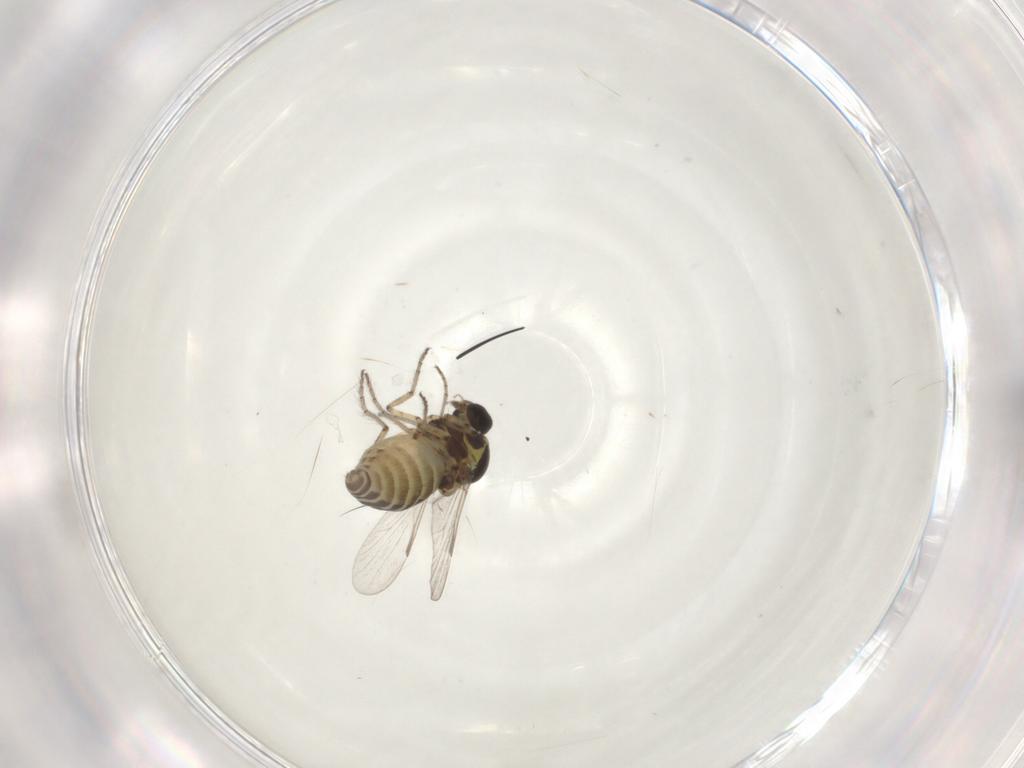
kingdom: Animalia
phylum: Arthropoda
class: Insecta
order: Diptera
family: Ceratopogonidae
